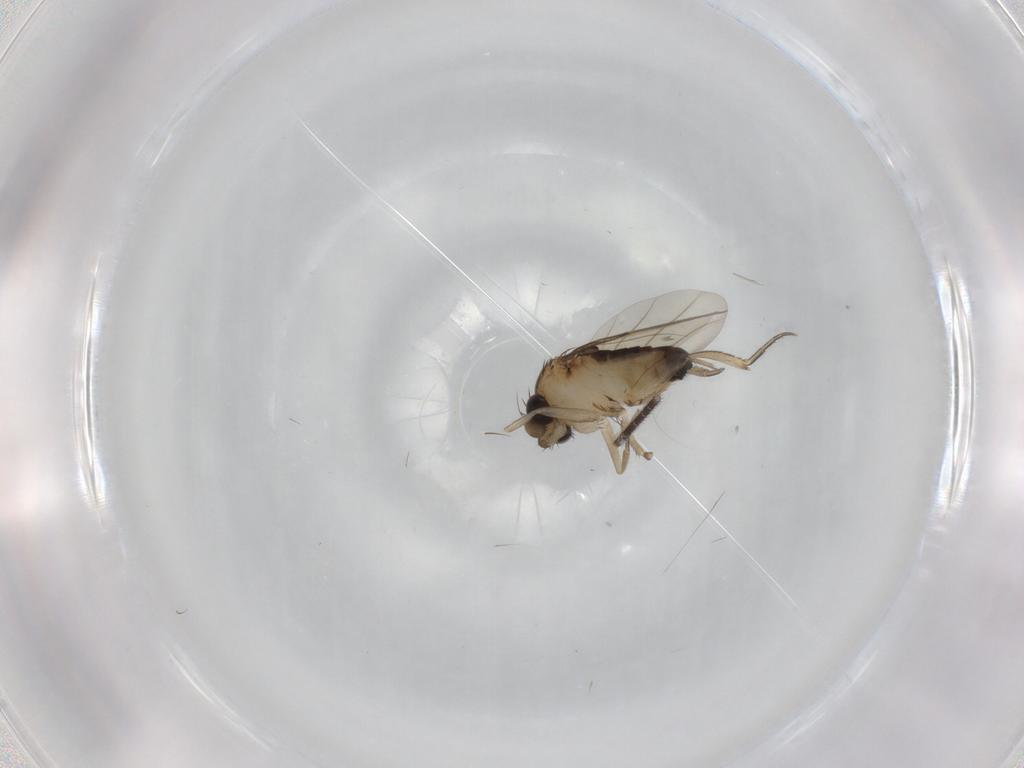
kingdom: Animalia
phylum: Arthropoda
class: Insecta
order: Diptera
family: Phoridae
